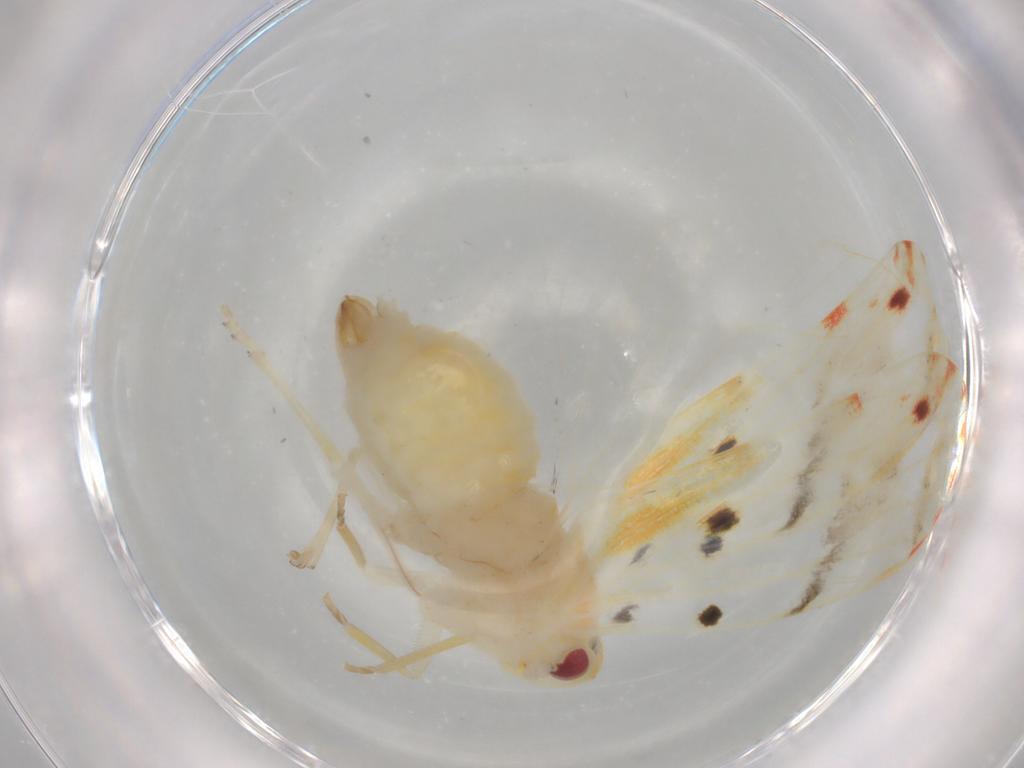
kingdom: Animalia
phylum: Arthropoda
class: Insecta
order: Hemiptera
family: Derbidae
